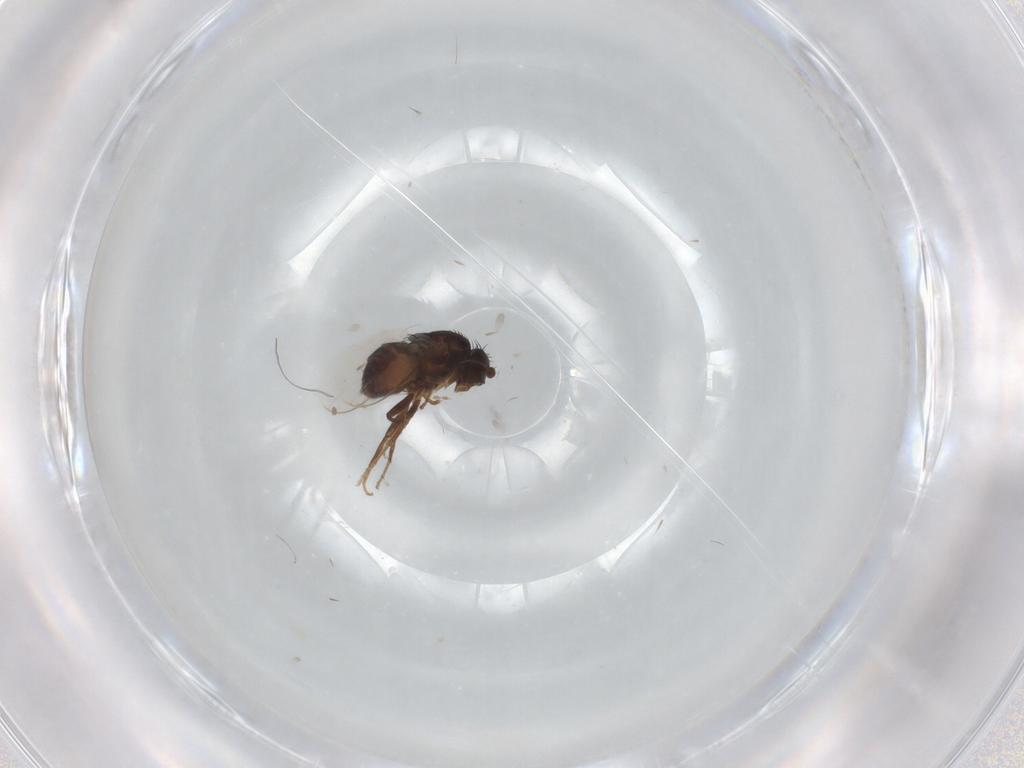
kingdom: Animalia
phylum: Arthropoda
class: Insecta
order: Diptera
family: Sphaeroceridae
